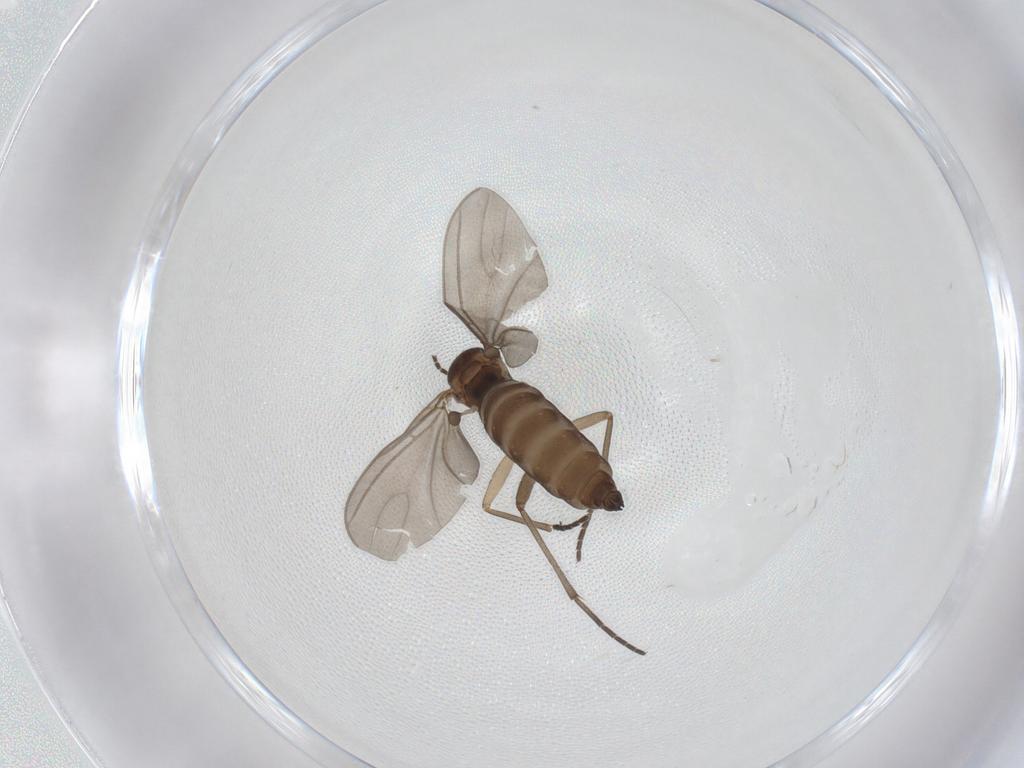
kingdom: Animalia
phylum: Arthropoda
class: Insecta
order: Diptera
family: Sciaridae
